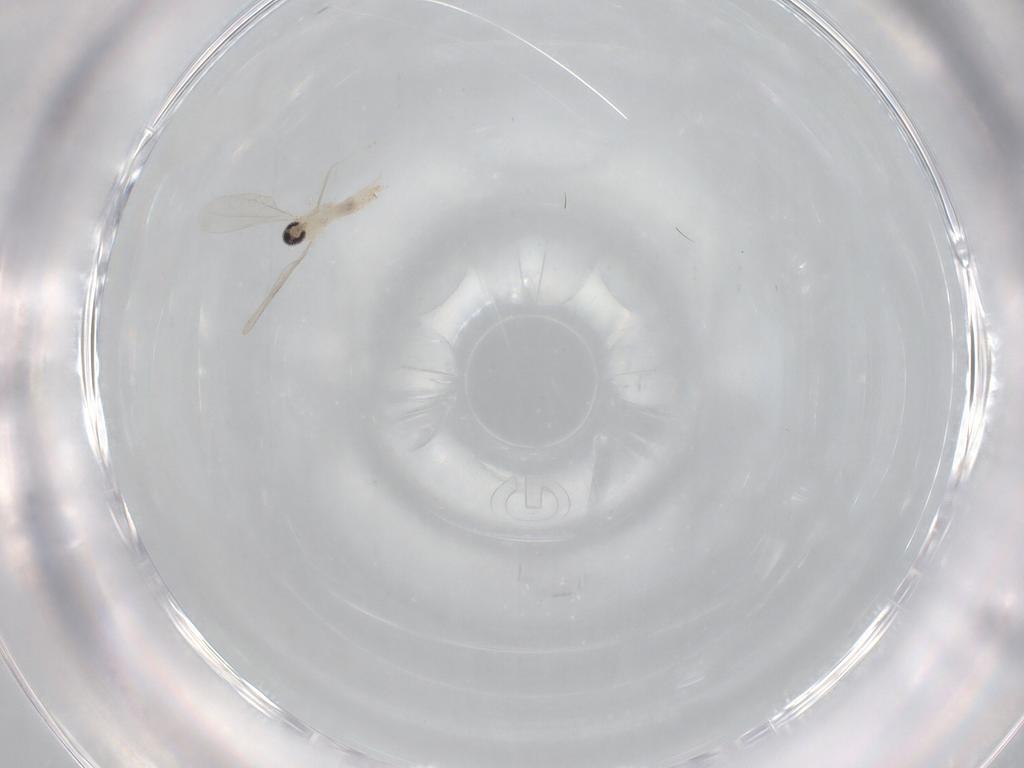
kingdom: Animalia
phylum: Arthropoda
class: Insecta
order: Diptera
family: Cecidomyiidae
